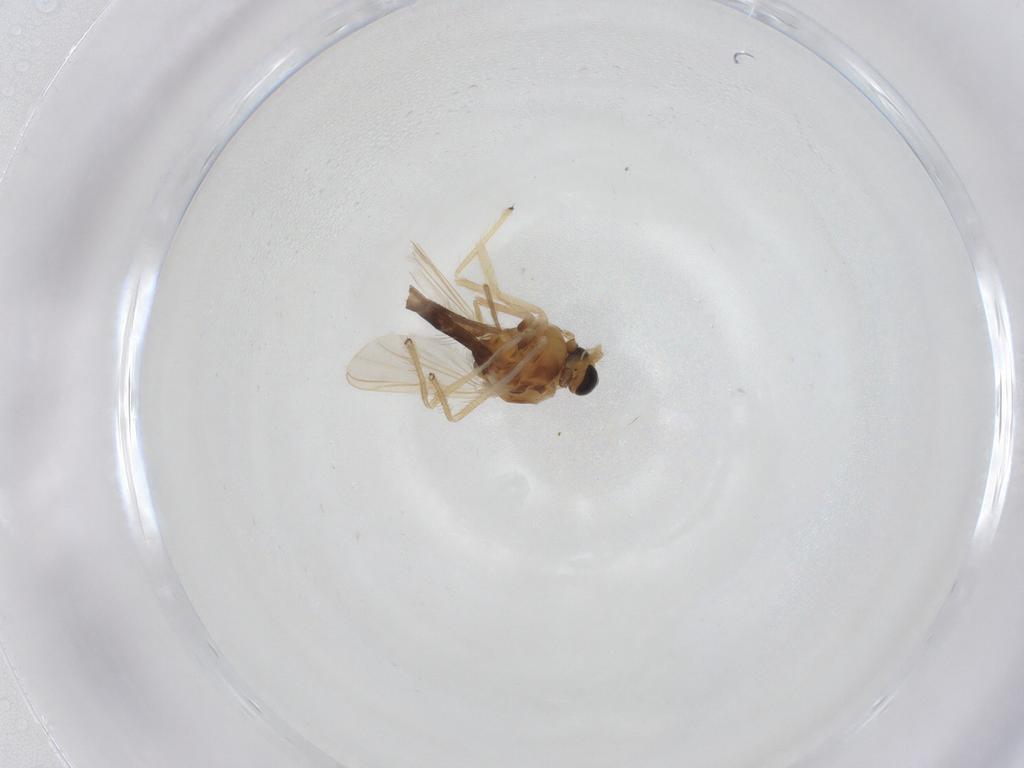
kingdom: Animalia
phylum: Arthropoda
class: Insecta
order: Diptera
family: Chironomidae
